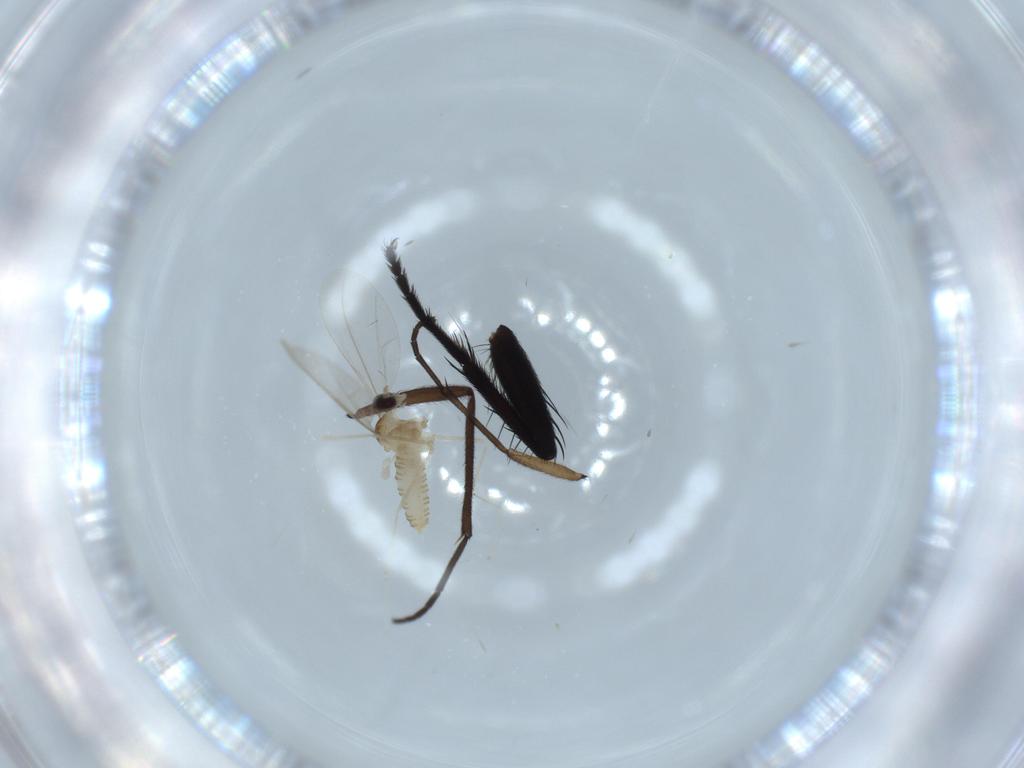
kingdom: Animalia
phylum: Arthropoda
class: Insecta
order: Diptera
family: Cecidomyiidae
